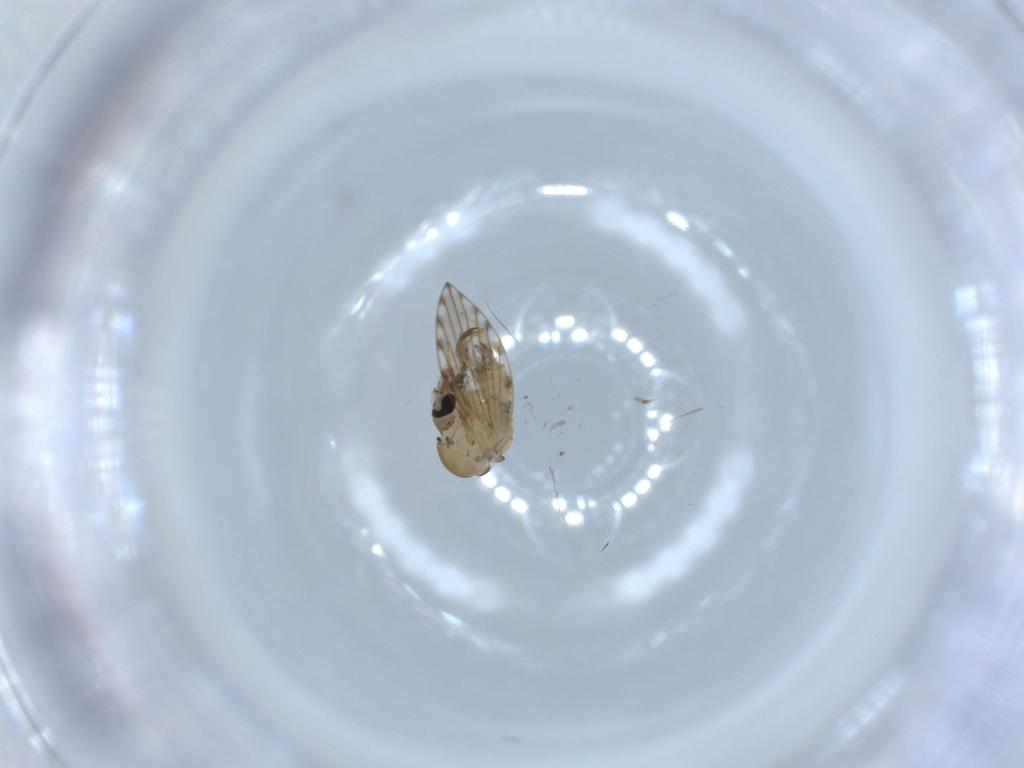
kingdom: Animalia
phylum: Arthropoda
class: Insecta
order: Diptera
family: Psychodidae
